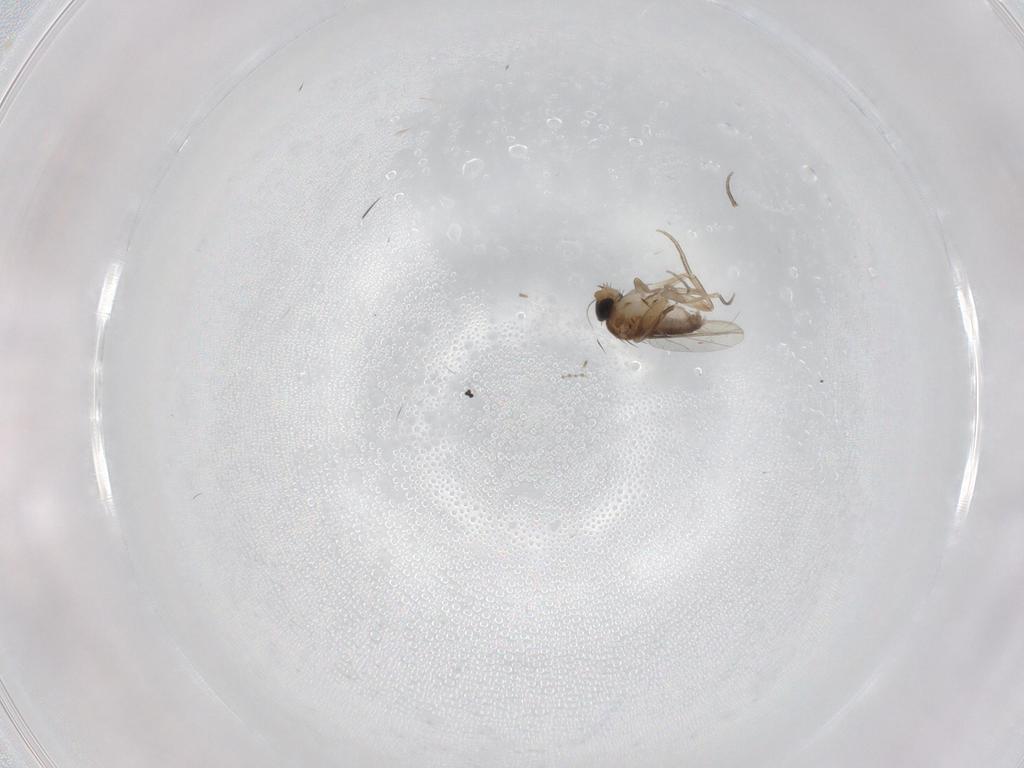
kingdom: Animalia
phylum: Arthropoda
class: Insecta
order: Diptera
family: Phoridae
